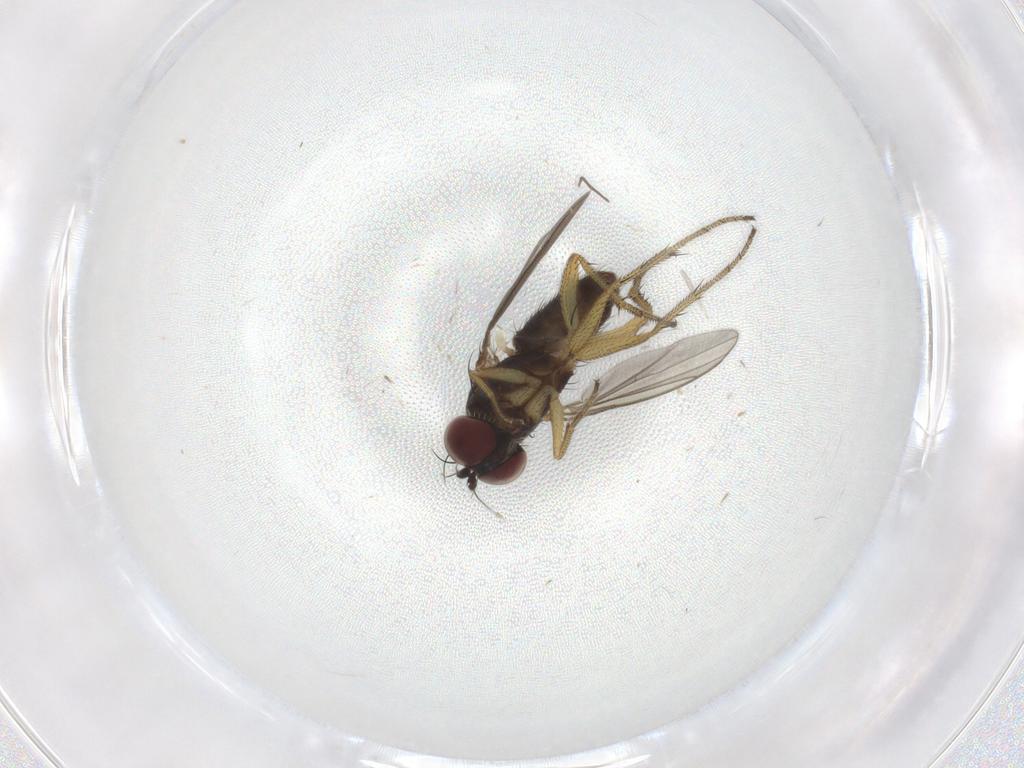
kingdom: Animalia
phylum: Arthropoda
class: Insecta
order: Diptera
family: Dolichopodidae
